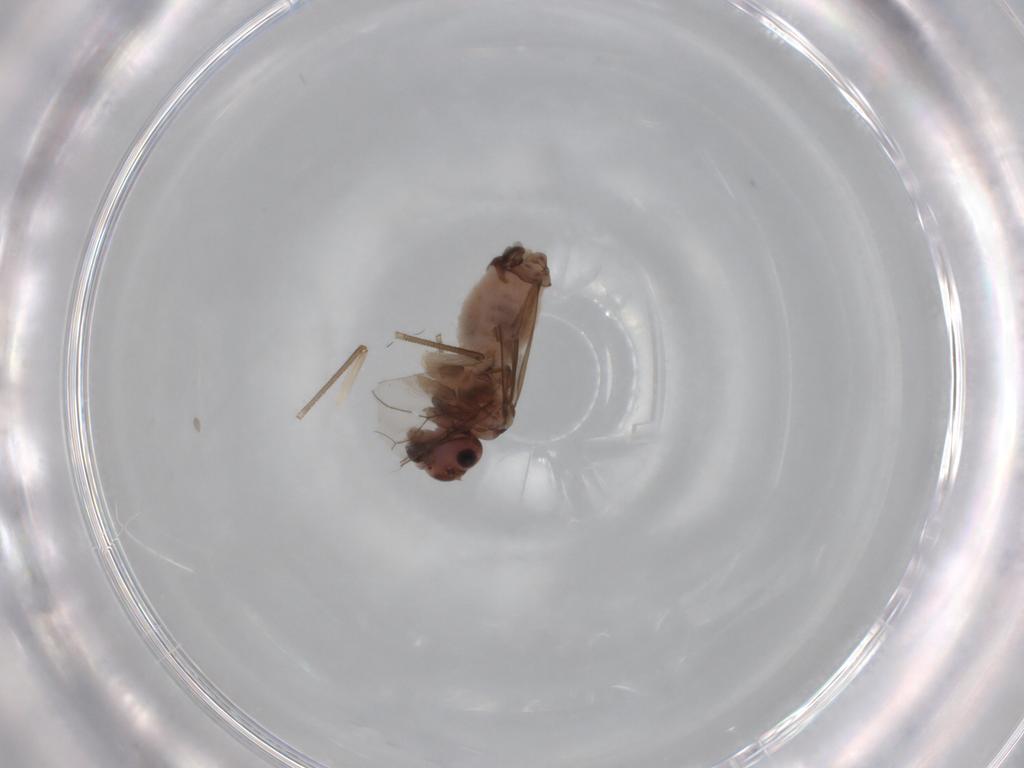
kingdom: Animalia
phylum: Arthropoda
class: Insecta
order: Psocodea
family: Peripsocidae
